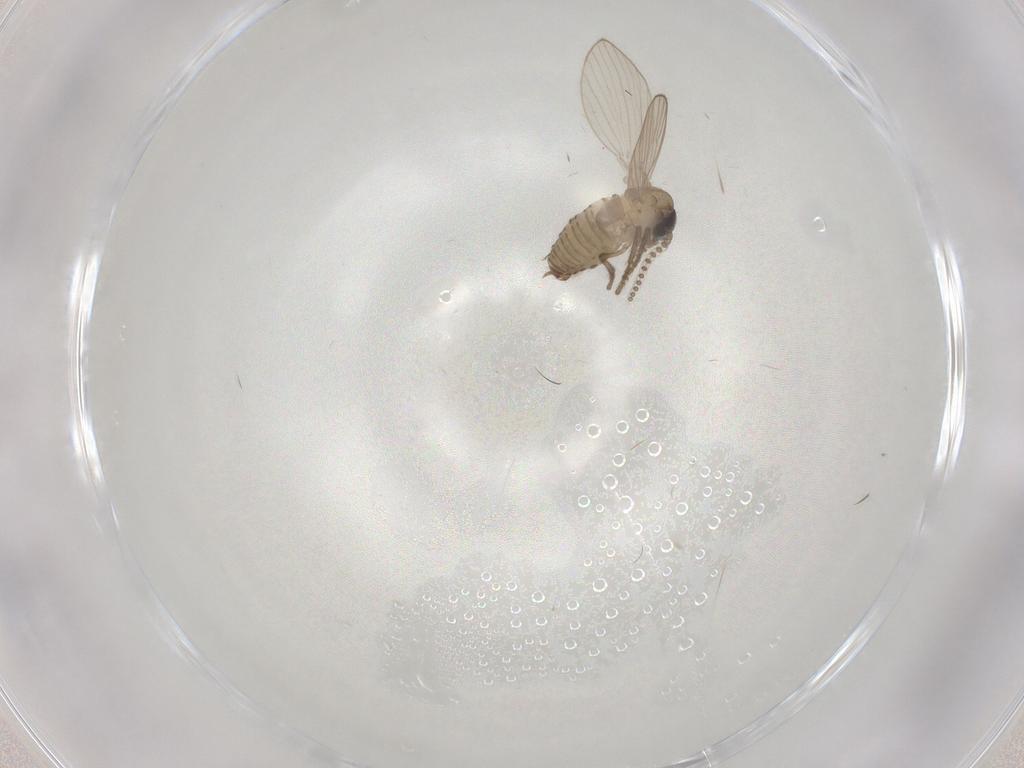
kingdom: Animalia
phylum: Arthropoda
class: Insecta
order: Diptera
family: Psychodidae
